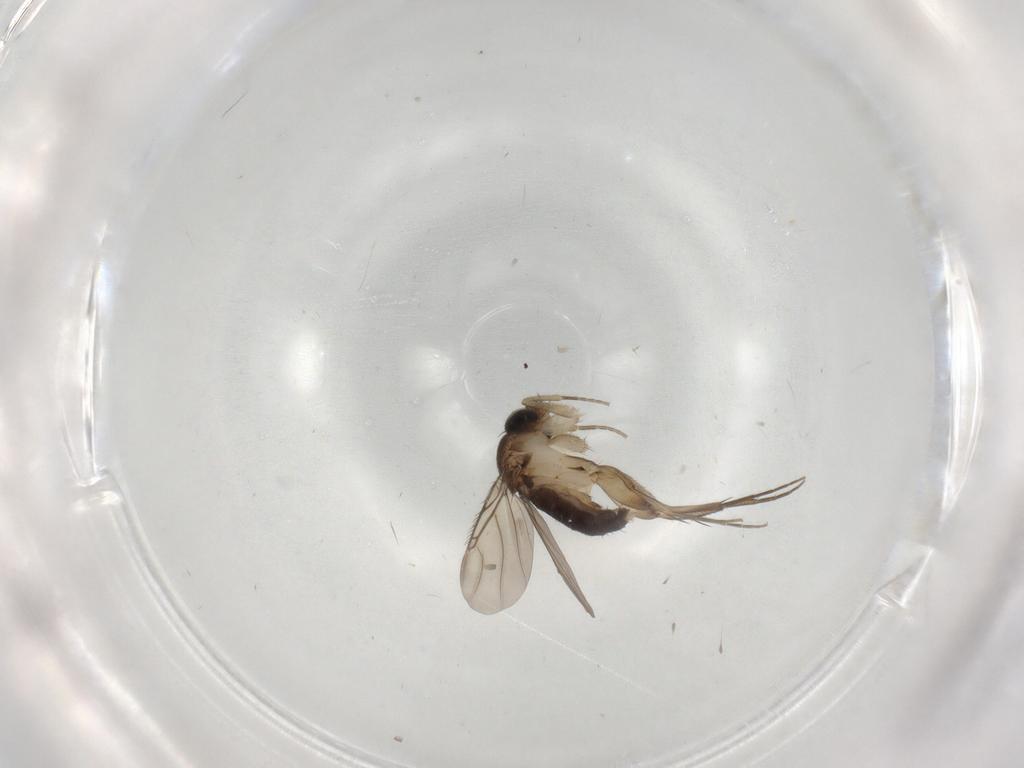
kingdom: Animalia
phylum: Arthropoda
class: Insecta
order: Diptera
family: Phoridae
